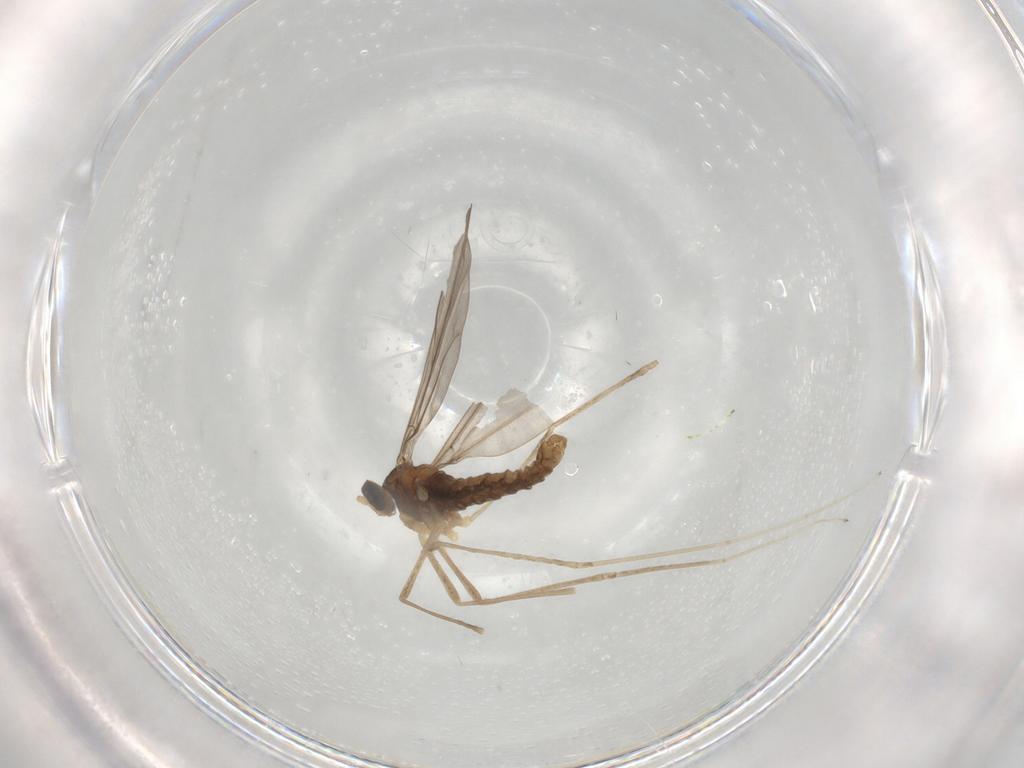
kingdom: Animalia
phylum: Arthropoda
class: Insecta
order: Diptera
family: Cecidomyiidae
